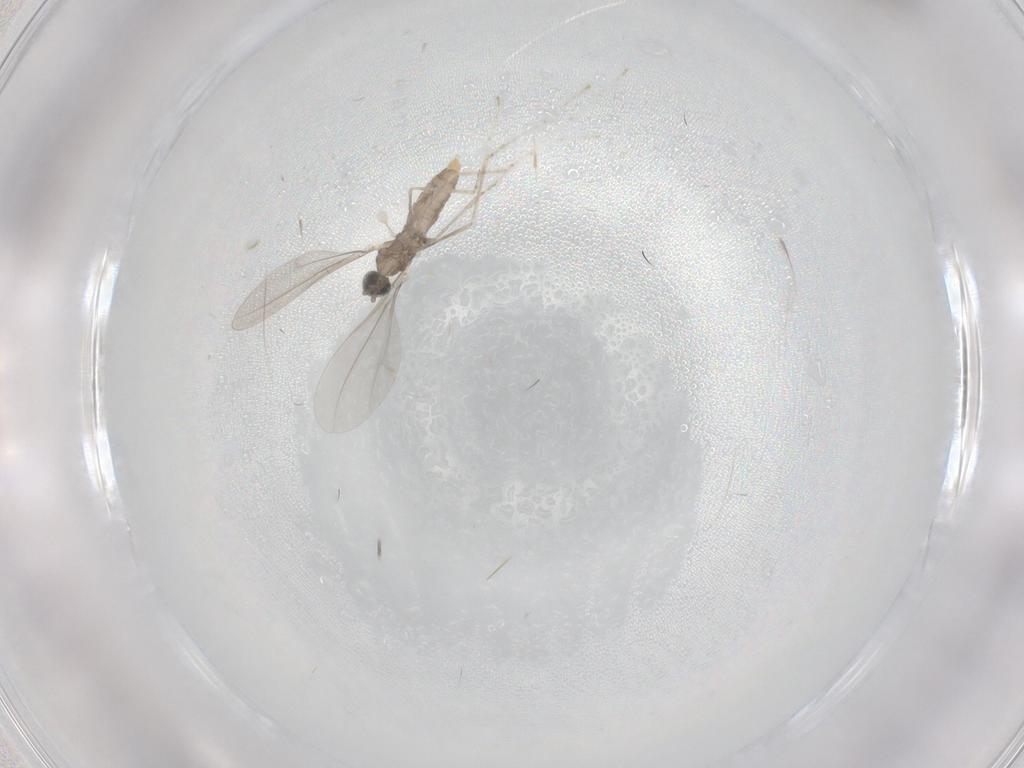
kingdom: Animalia
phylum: Arthropoda
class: Insecta
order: Diptera
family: Cecidomyiidae
